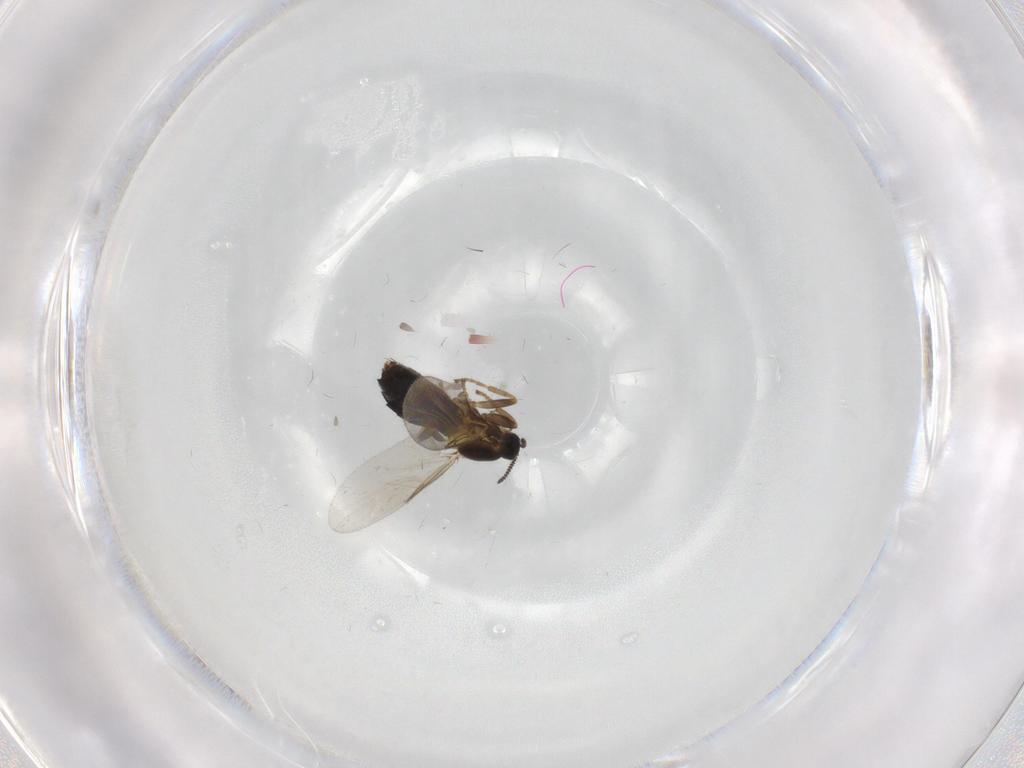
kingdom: Animalia
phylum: Arthropoda
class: Insecta
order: Diptera
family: Scatopsidae
